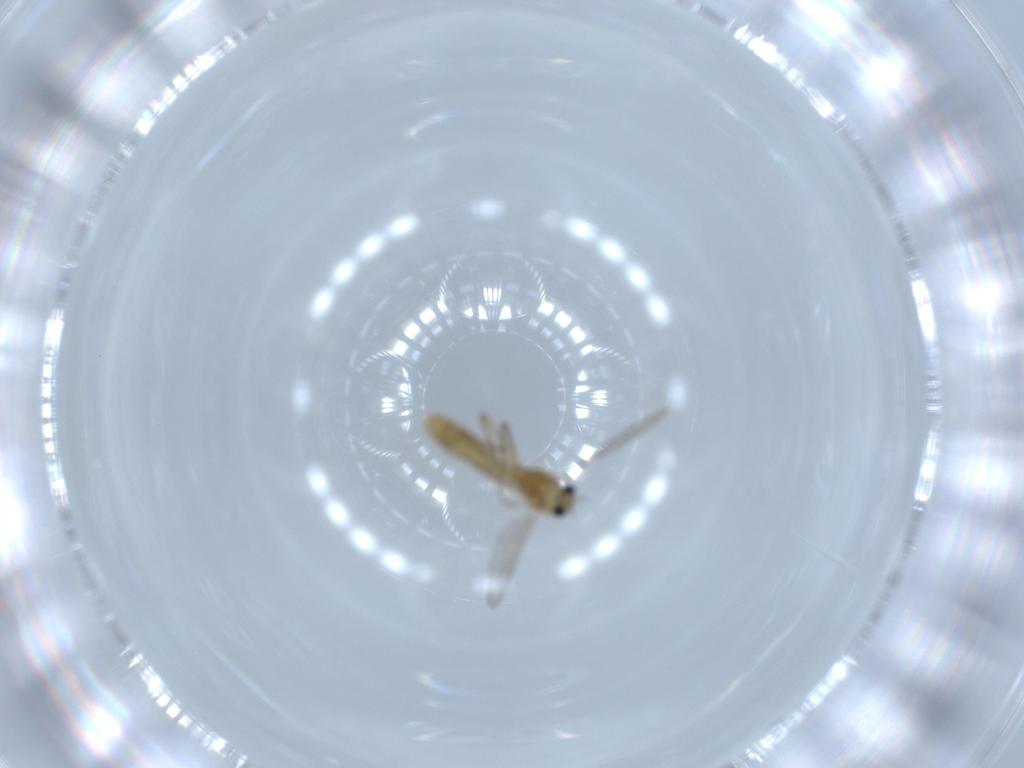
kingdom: Animalia
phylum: Arthropoda
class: Insecta
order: Diptera
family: Chironomidae
